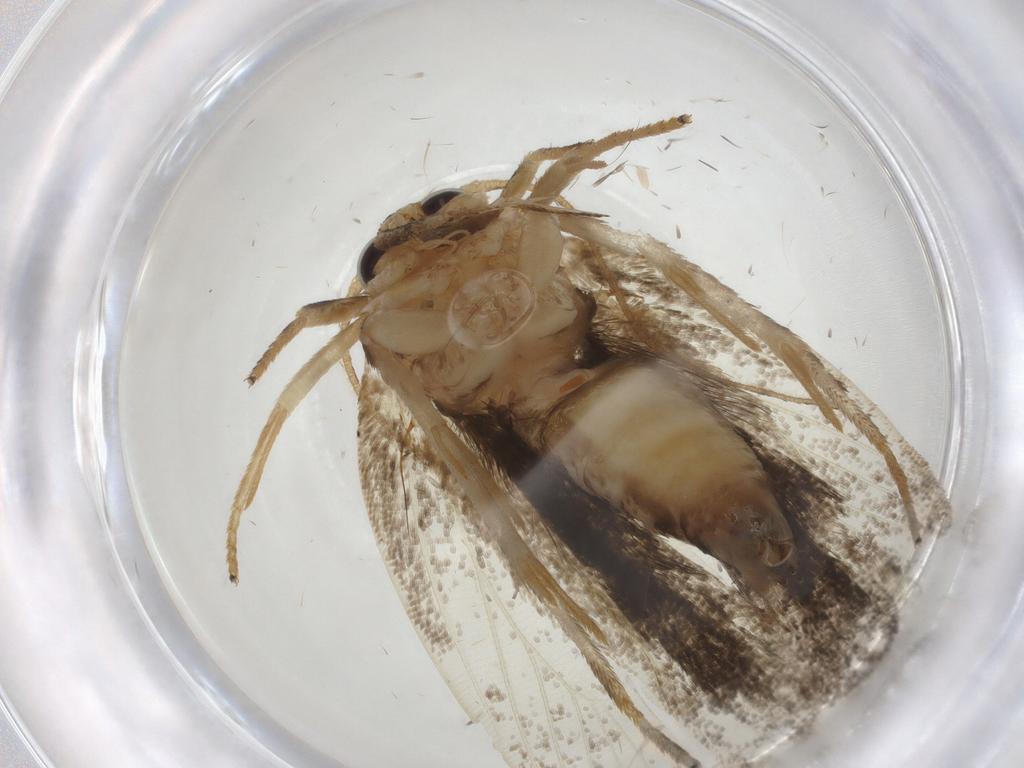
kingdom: Animalia
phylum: Arthropoda
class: Insecta
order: Lepidoptera
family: Depressariidae
